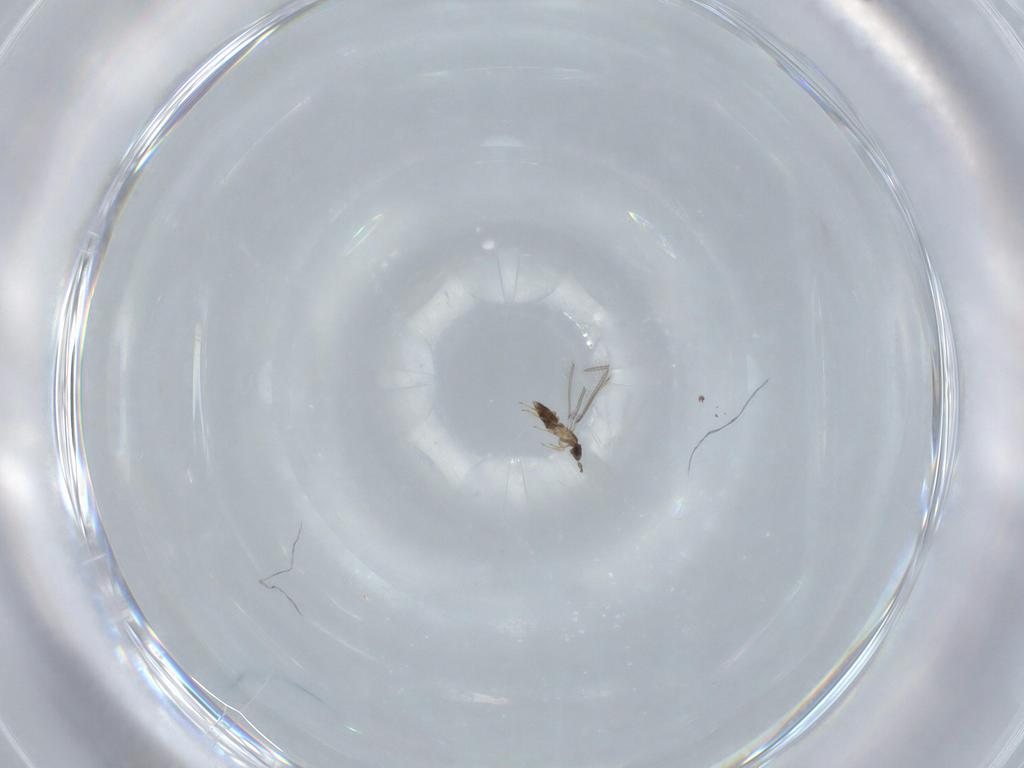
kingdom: Animalia
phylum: Arthropoda
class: Insecta
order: Hymenoptera
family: Mymaridae
